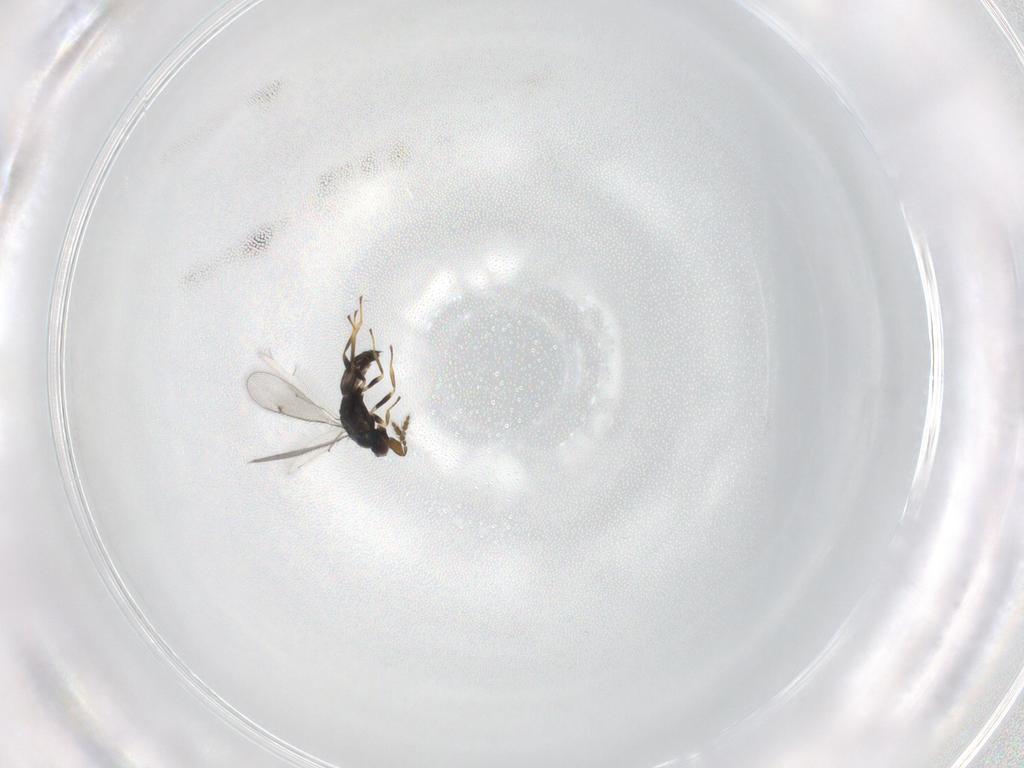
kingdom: Animalia
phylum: Arthropoda
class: Insecta
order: Hymenoptera
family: Eulophidae
